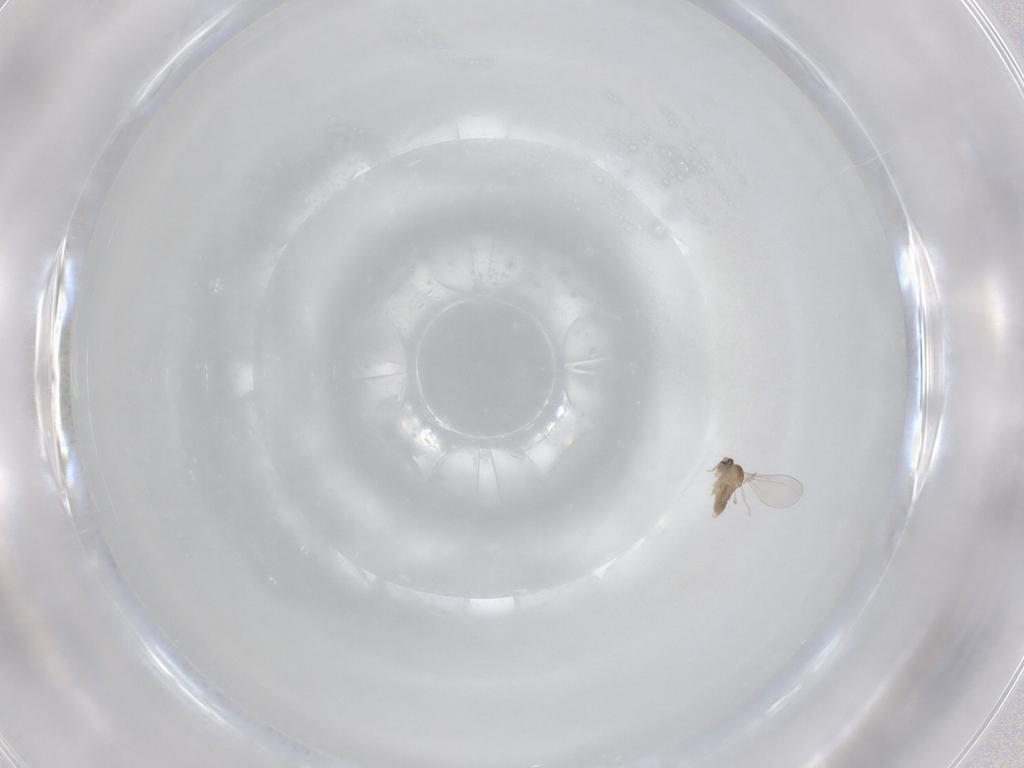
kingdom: Animalia
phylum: Arthropoda
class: Insecta
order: Diptera
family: Cecidomyiidae
